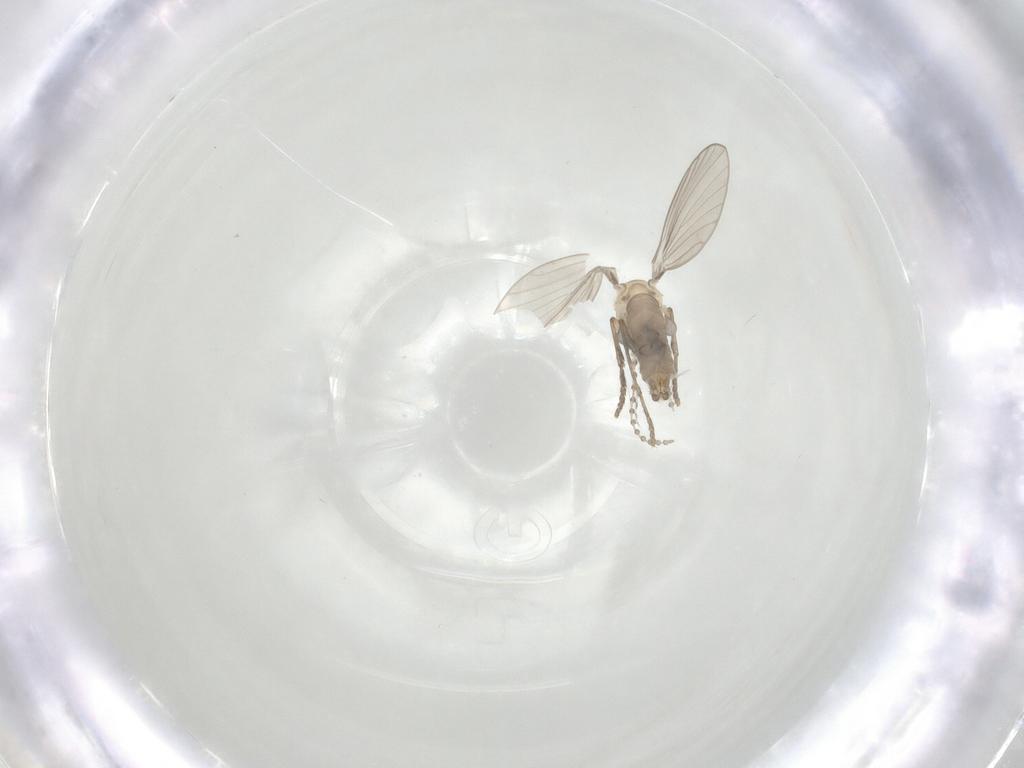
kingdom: Animalia
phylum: Arthropoda
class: Insecta
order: Diptera
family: Psychodidae
